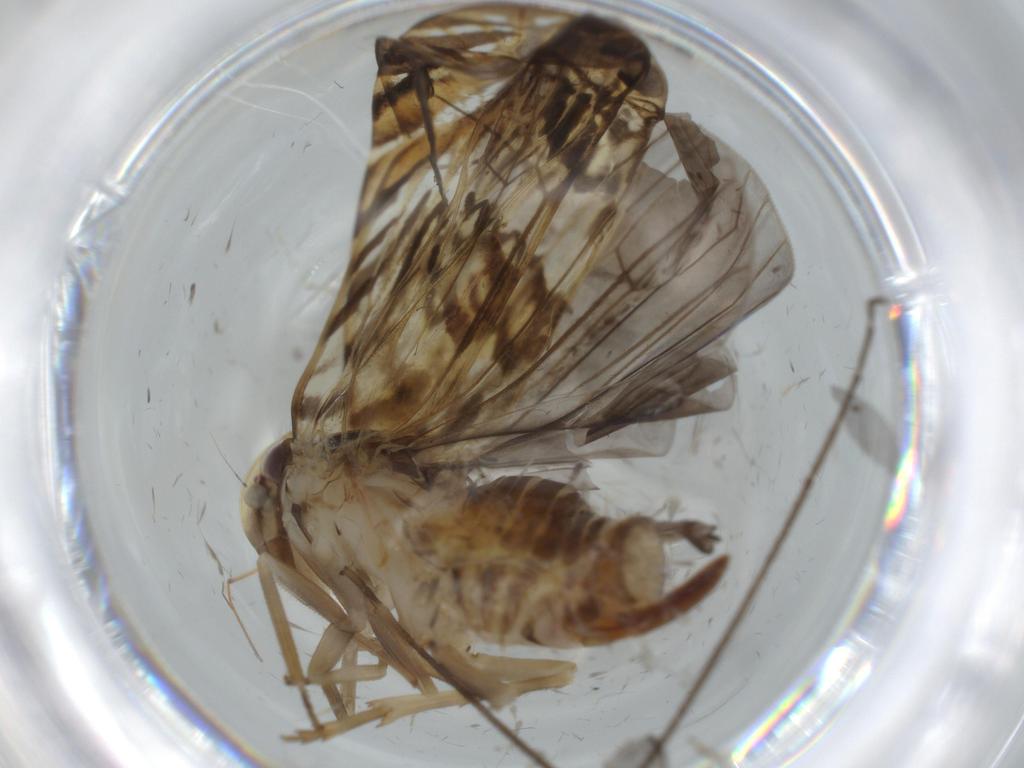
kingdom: Animalia
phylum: Arthropoda
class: Insecta
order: Hemiptera
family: Cixiidae
